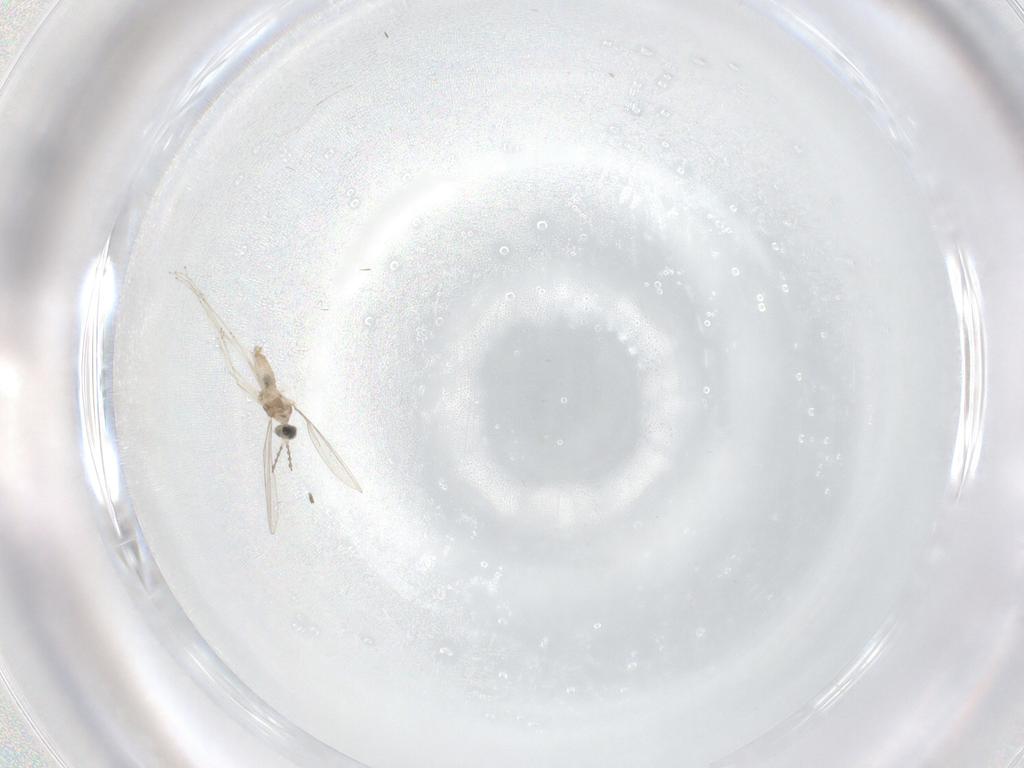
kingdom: Animalia
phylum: Arthropoda
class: Insecta
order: Diptera
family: Cecidomyiidae
